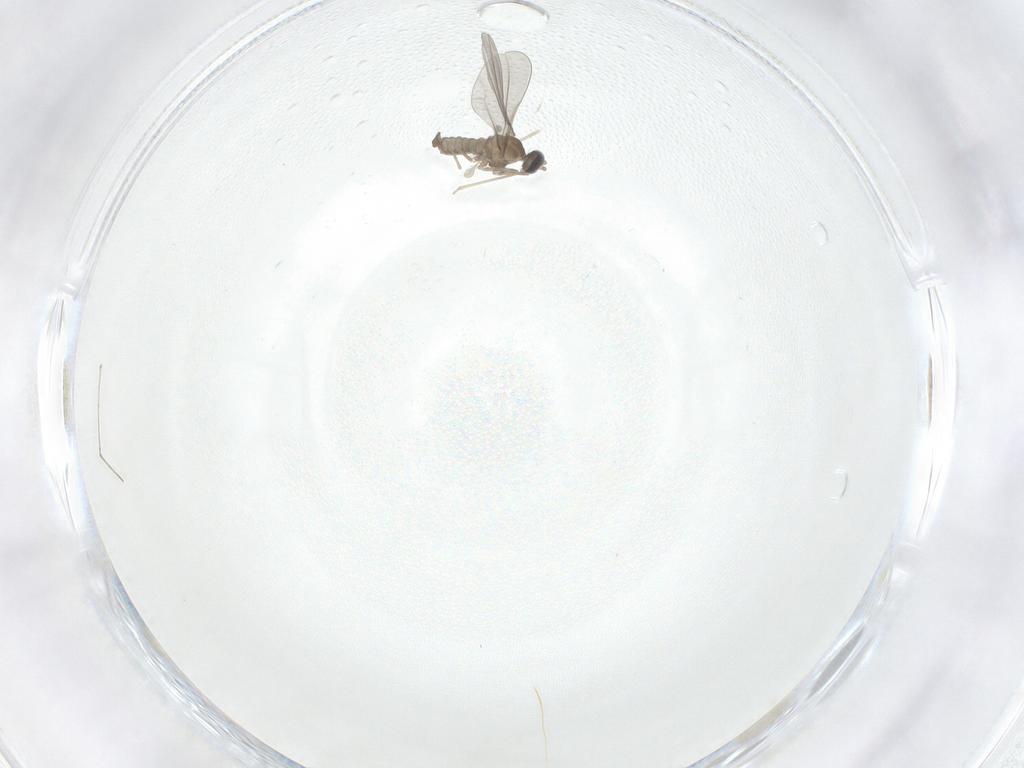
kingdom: Animalia
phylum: Arthropoda
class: Insecta
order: Diptera
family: Cecidomyiidae
